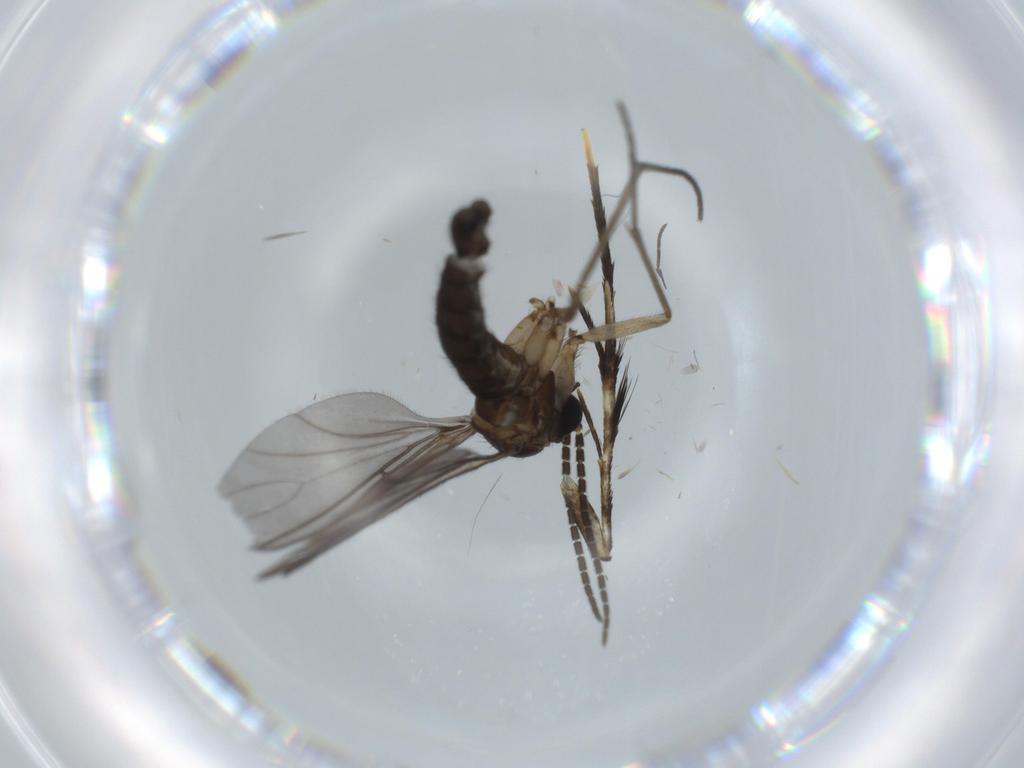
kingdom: Animalia
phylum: Arthropoda
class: Insecta
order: Diptera
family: Sciaridae
